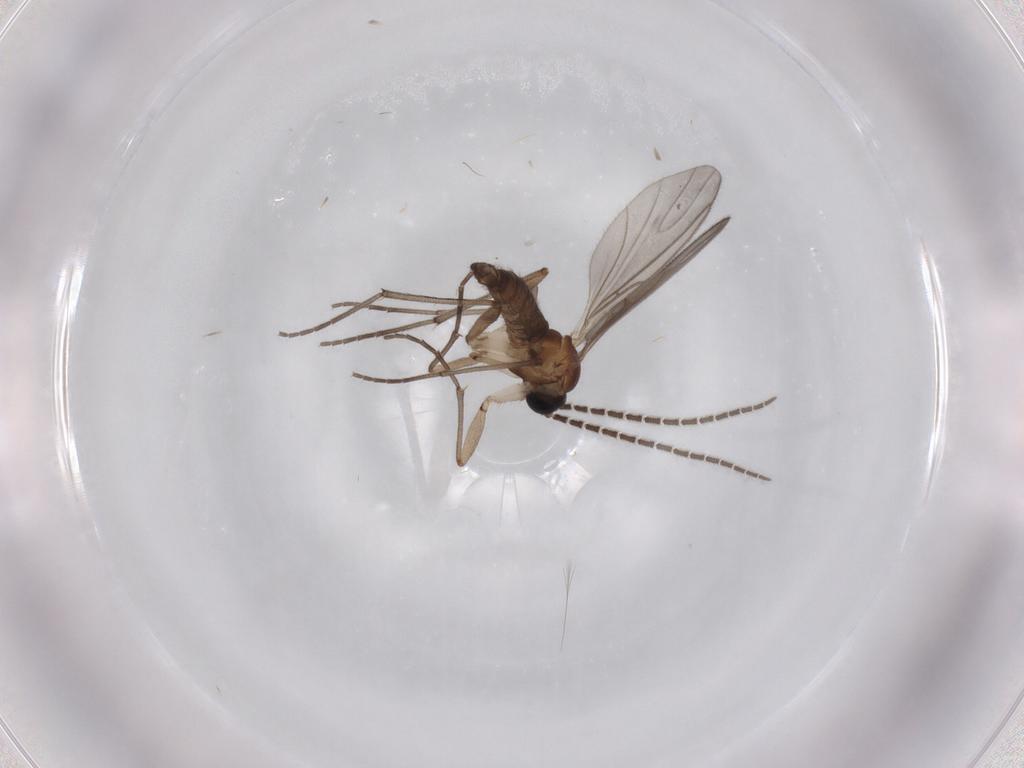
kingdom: Animalia
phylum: Arthropoda
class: Insecta
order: Diptera
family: Sciaridae
